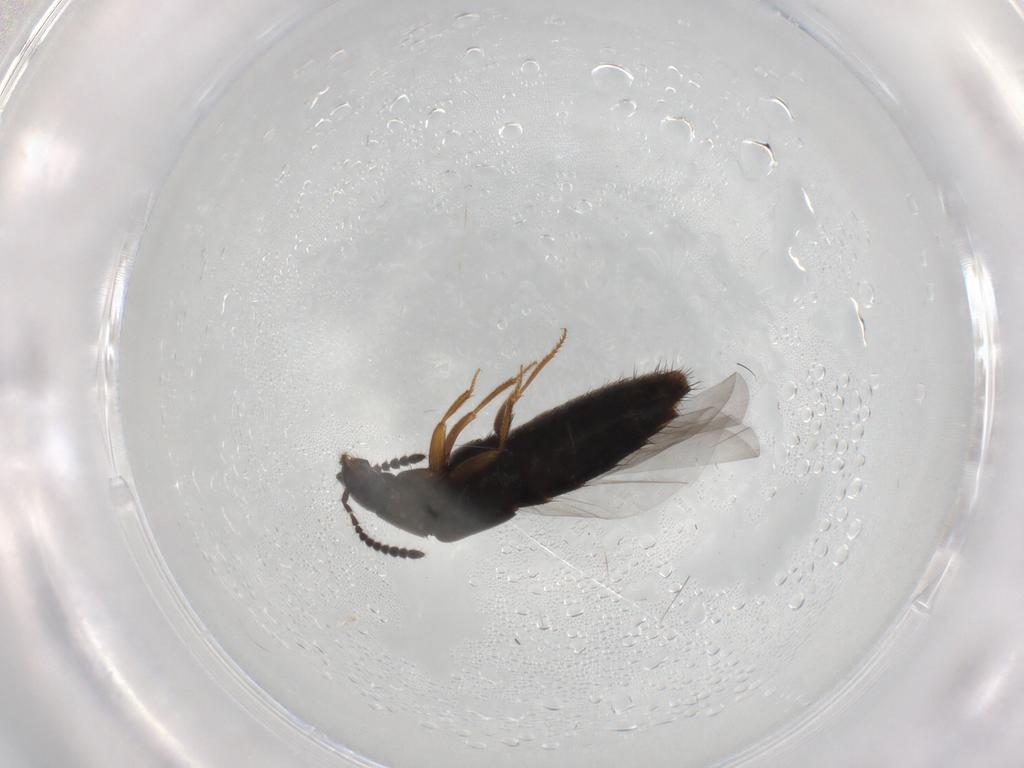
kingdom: Animalia
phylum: Arthropoda
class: Insecta
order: Coleoptera
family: Staphylinidae
